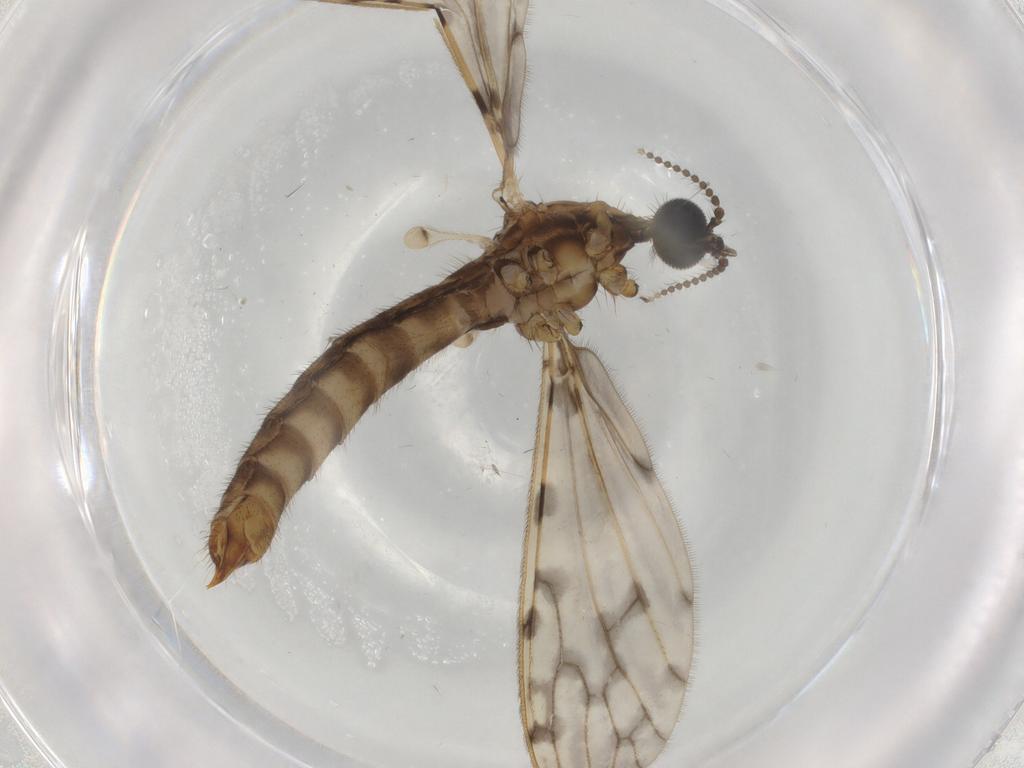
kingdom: Animalia
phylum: Arthropoda
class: Insecta
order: Diptera
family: Phoridae
